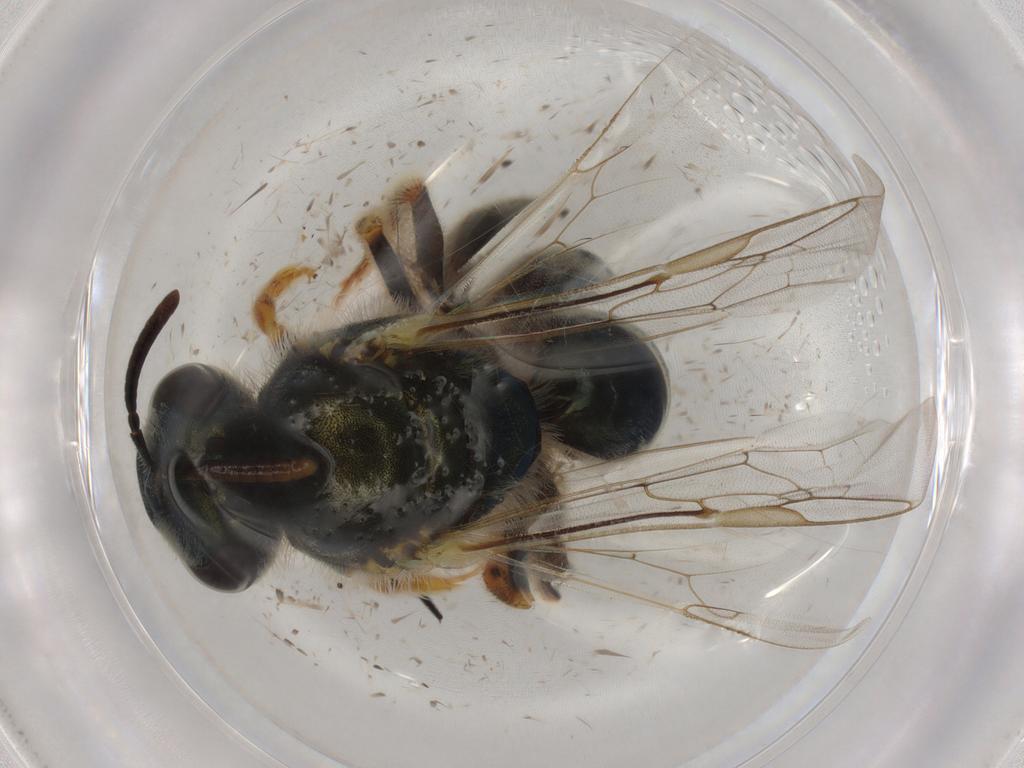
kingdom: Animalia
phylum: Arthropoda
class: Insecta
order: Hymenoptera
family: Halictidae
